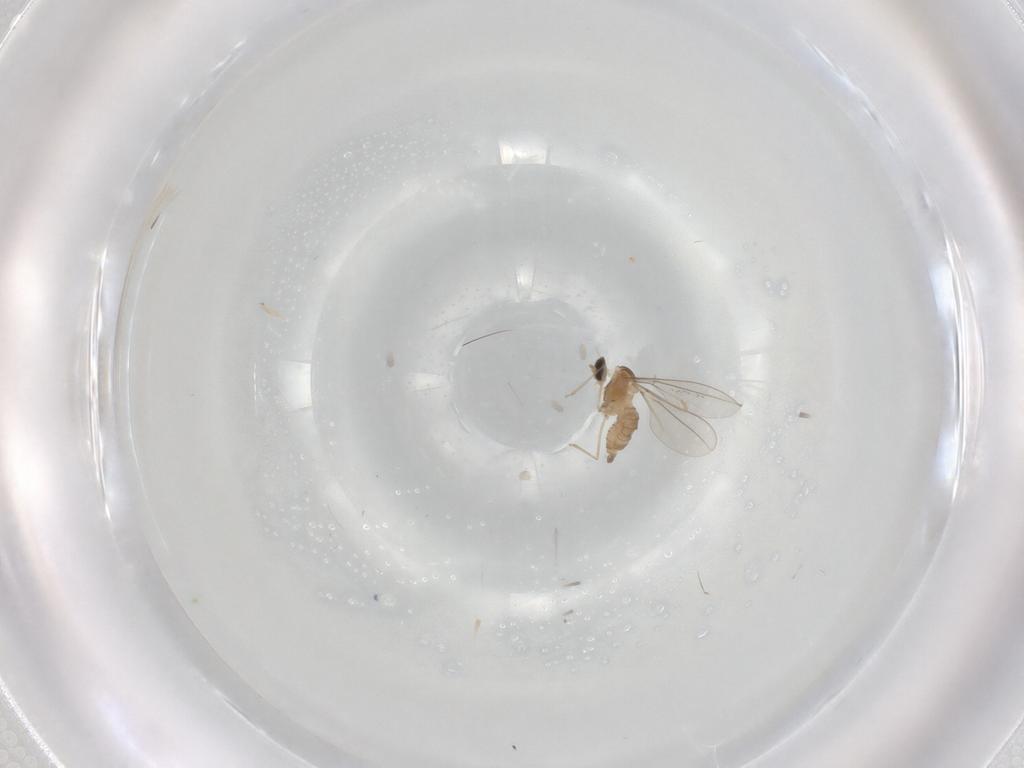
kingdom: Animalia
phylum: Arthropoda
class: Insecta
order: Diptera
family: Cecidomyiidae
